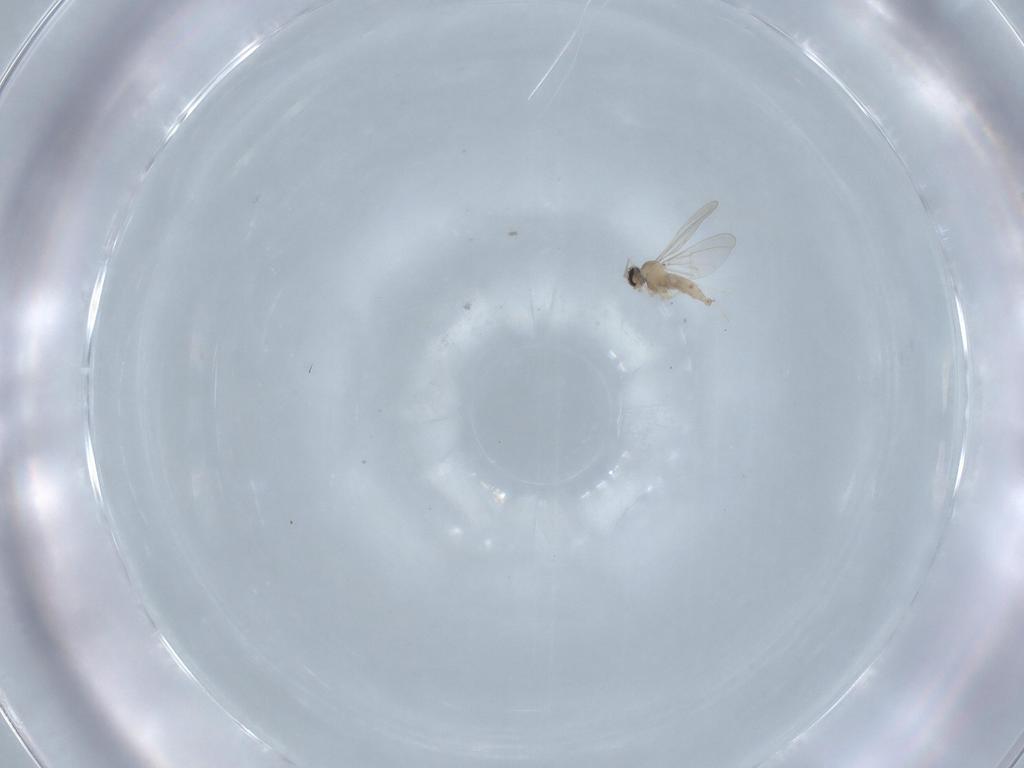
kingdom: Animalia
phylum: Arthropoda
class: Insecta
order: Diptera
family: Cecidomyiidae
